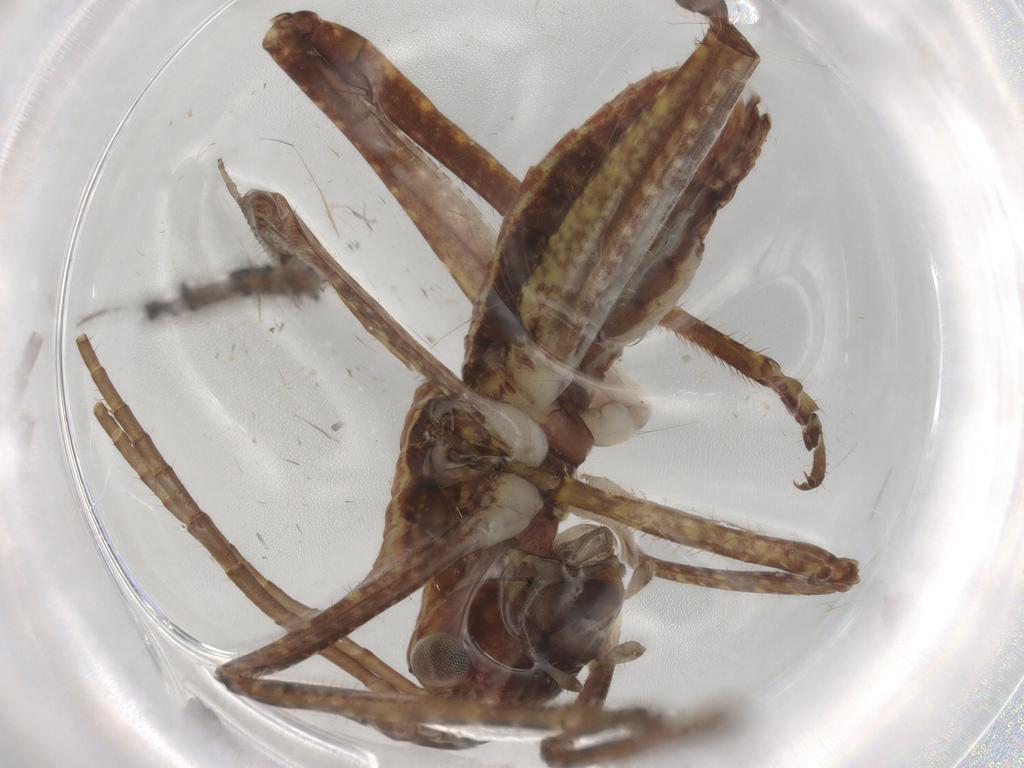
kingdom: Animalia
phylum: Arthropoda
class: Insecta
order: Orthoptera
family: Tettigoniidae
